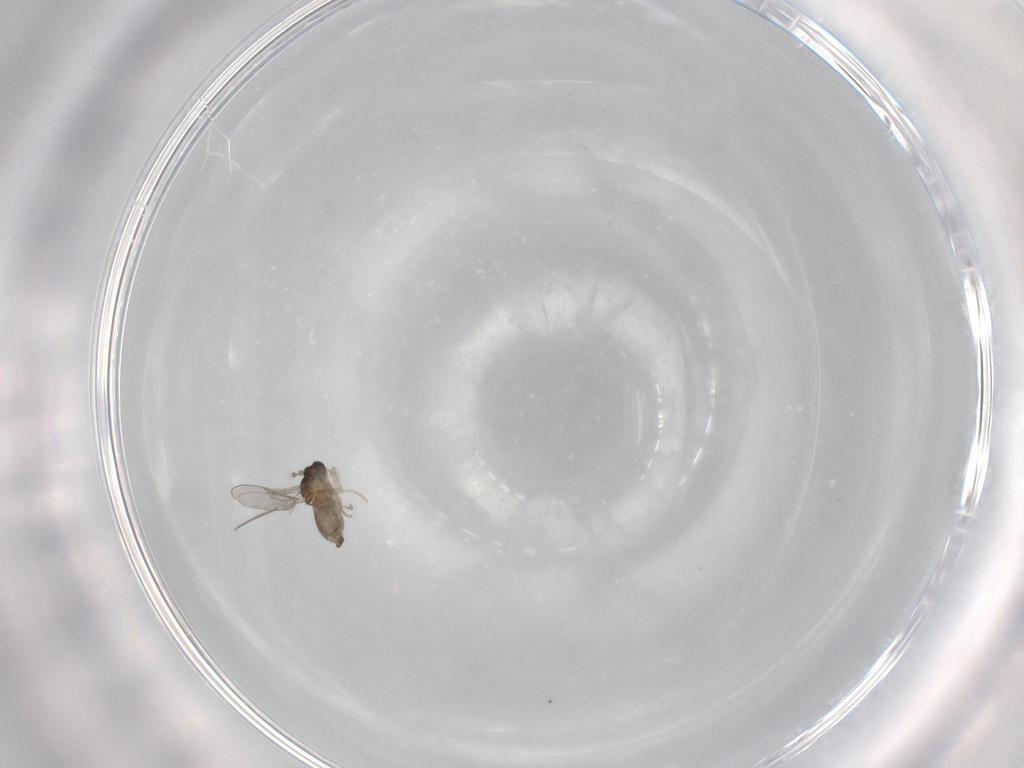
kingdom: Animalia
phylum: Arthropoda
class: Insecta
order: Diptera
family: Cecidomyiidae
